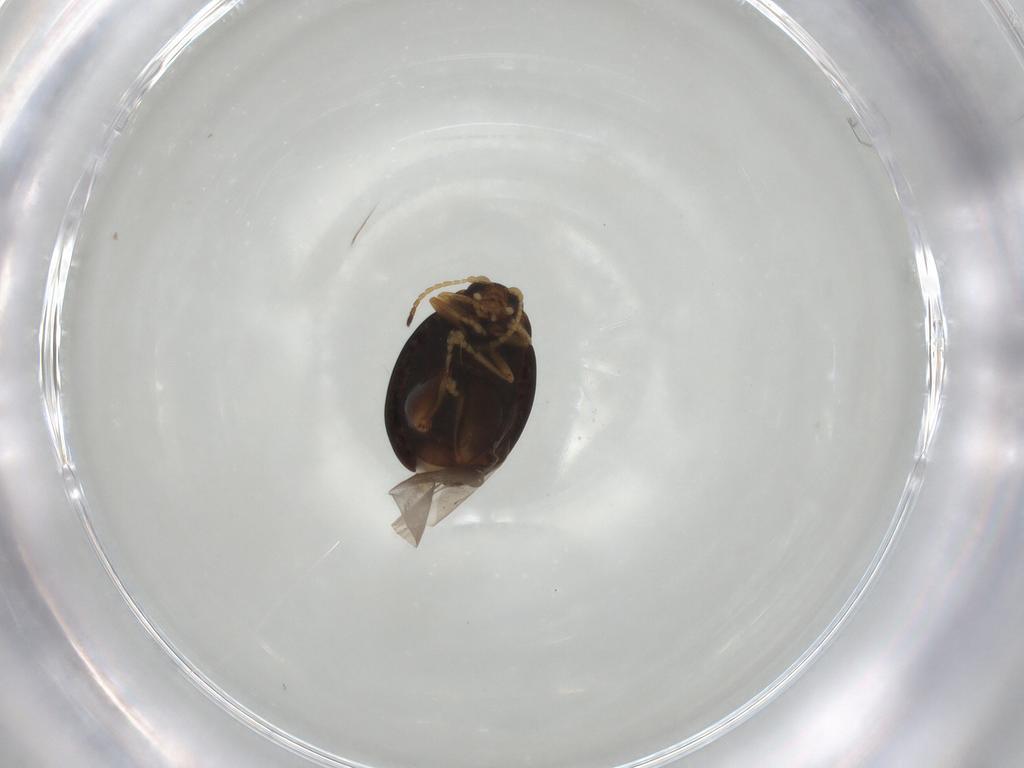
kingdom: Animalia
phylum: Arthropoda
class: Insecta
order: Coleoptera
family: Chrysomelidae
